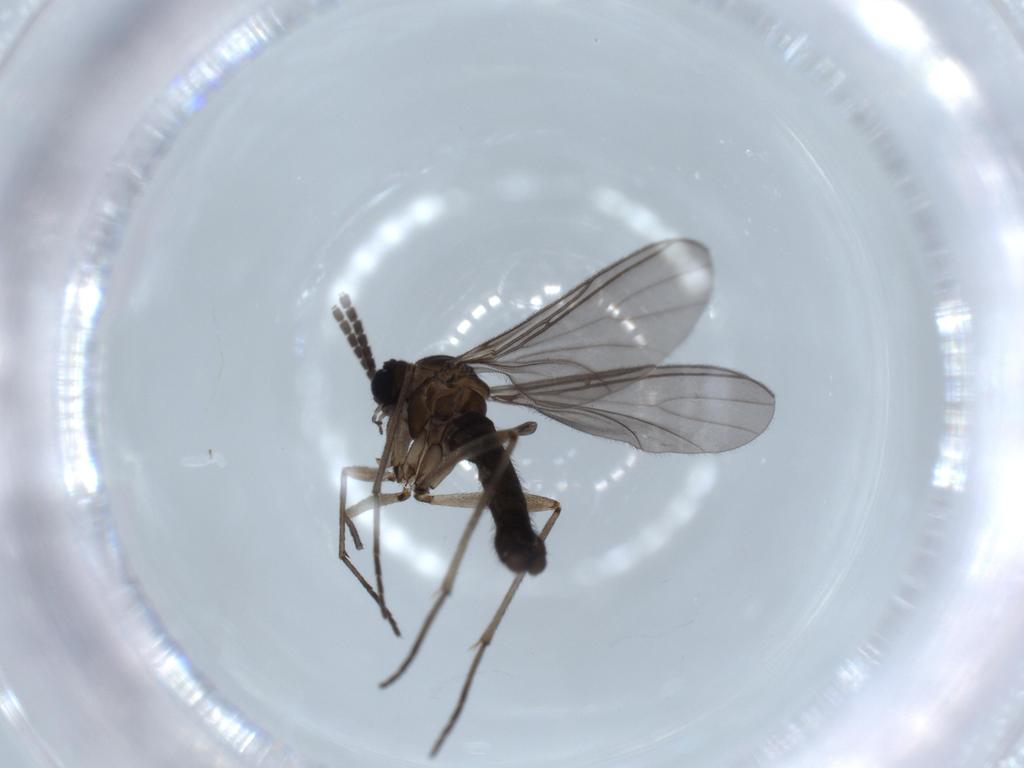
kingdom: Animalia
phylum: Arthropoda
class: Insecta
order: Diptera
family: Sciaridae
